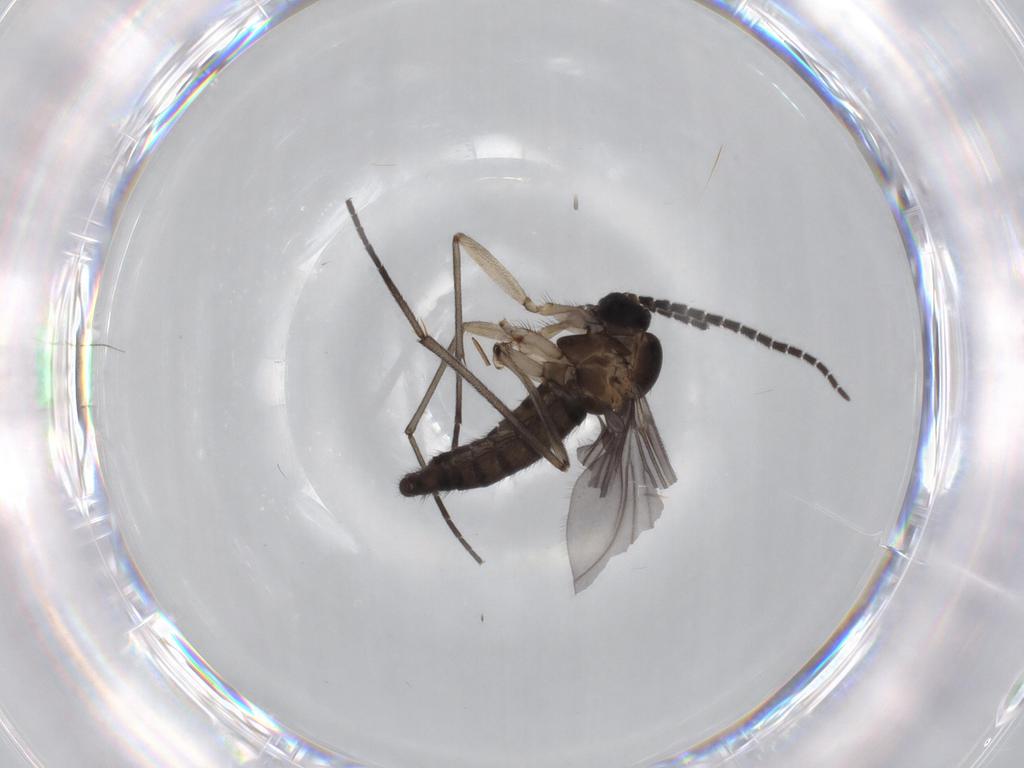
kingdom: Animalia
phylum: Arthropoda
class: Insecta
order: Diptera
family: Sciaridae
